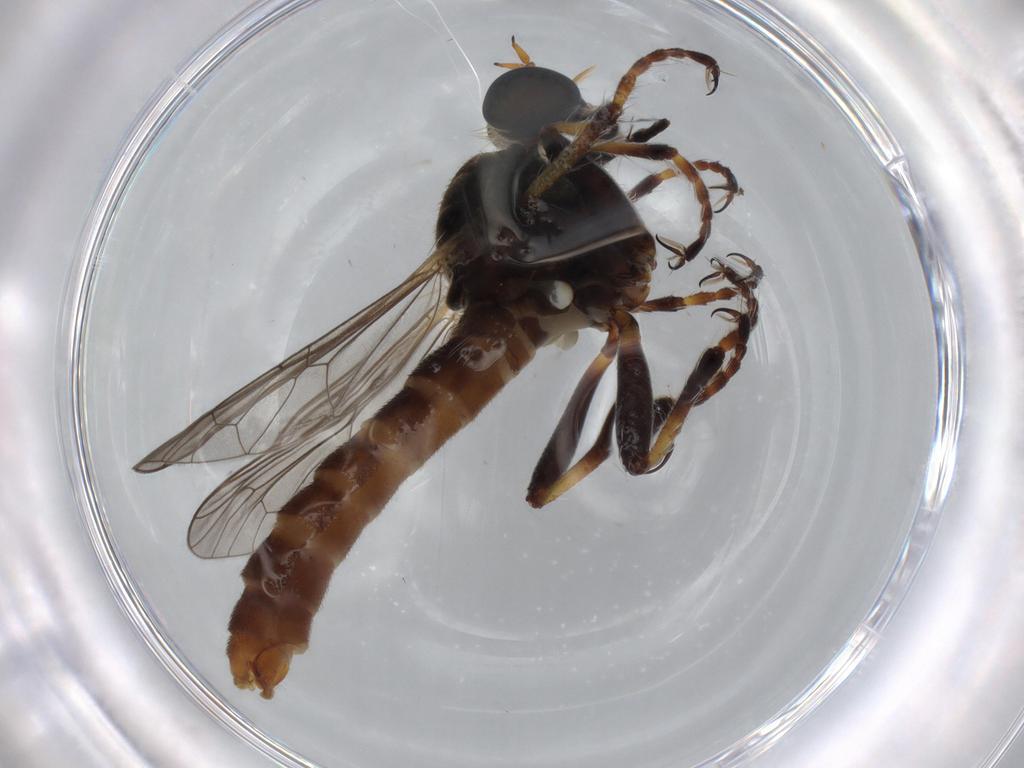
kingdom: Animalia
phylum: Arthropoda
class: Insecta
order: Diptera
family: Asilidae
